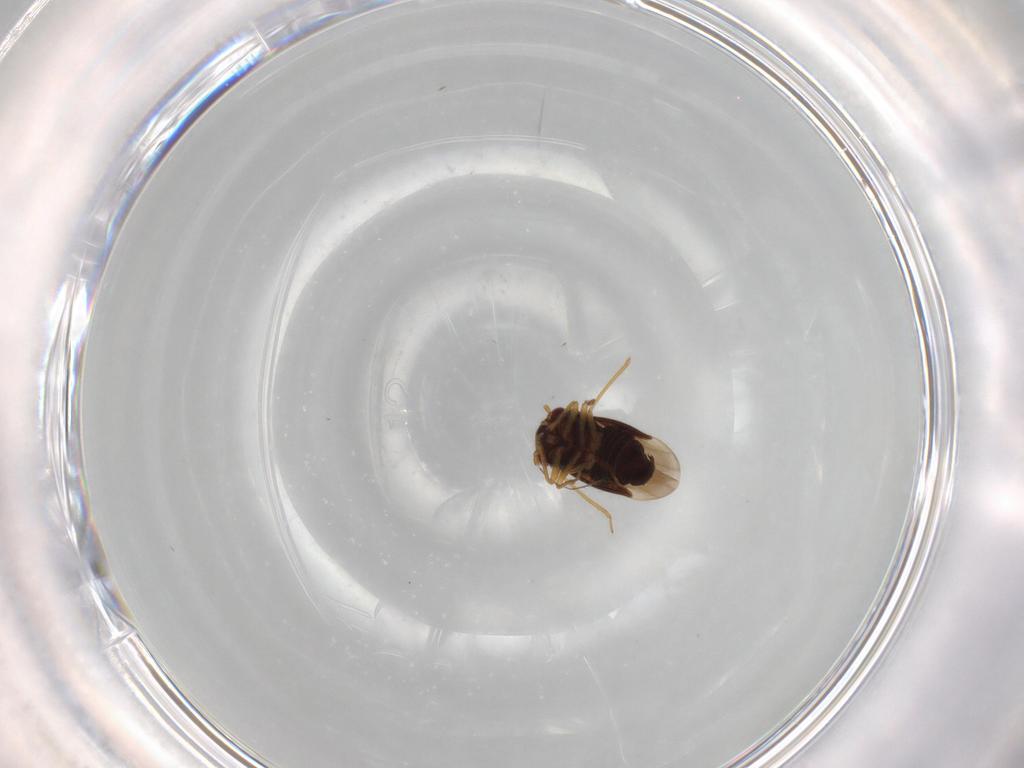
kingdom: Animalia
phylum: Arthropoda
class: Insecta
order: Hemiptera
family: Schizopteridae
